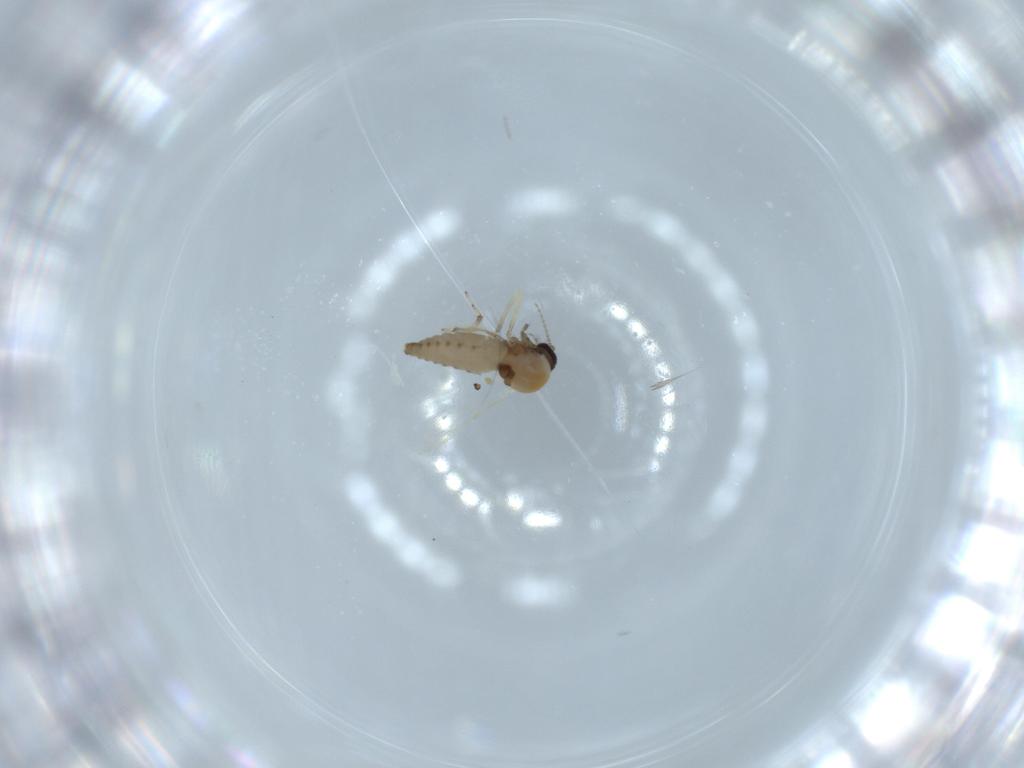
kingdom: Animalia
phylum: Arthropoda
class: Insecta
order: Diptera
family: Ceratopogonidae
